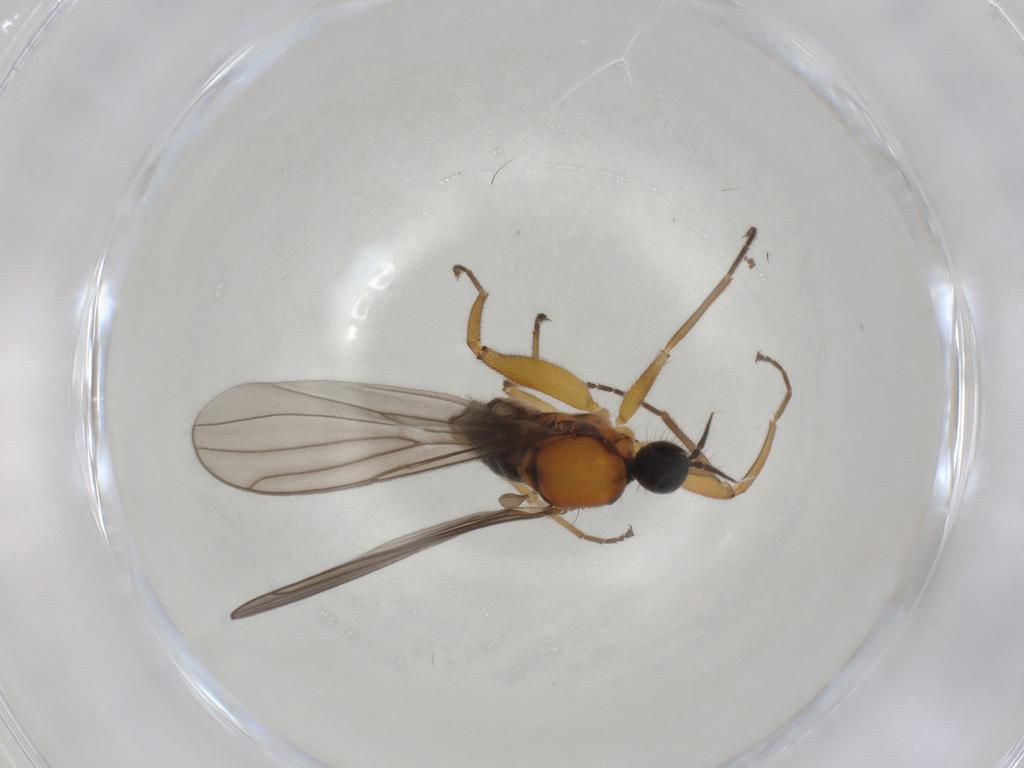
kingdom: Animalia
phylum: Arthropoda
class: Insecta
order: Diptera
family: Hybotidae
